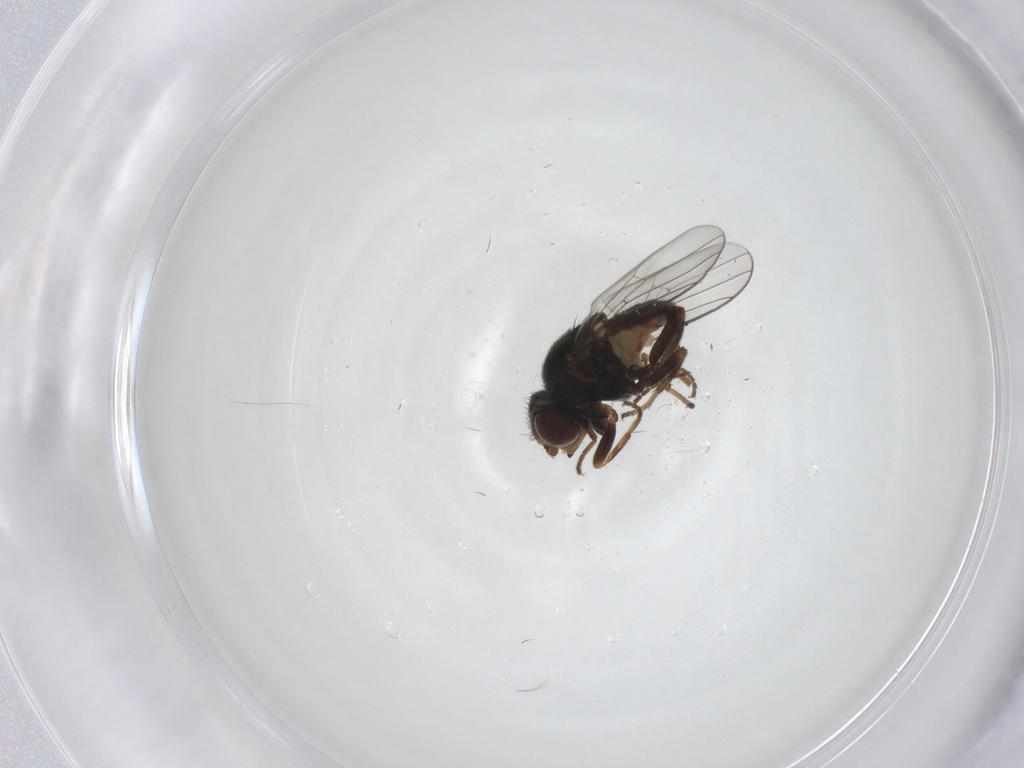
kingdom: Animalia
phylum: Arthropoda
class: Insecta
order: Diptera
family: Chloropidae
